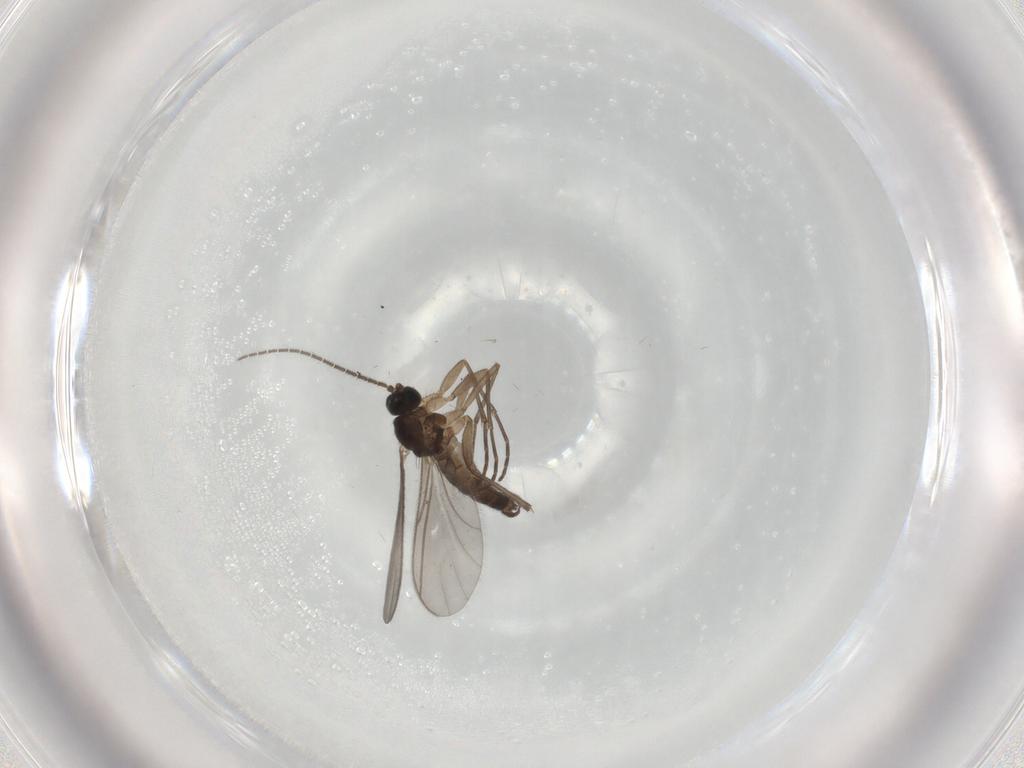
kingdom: Animalia
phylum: Arthropoda
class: Insecta
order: Diptera
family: Sciaridae
